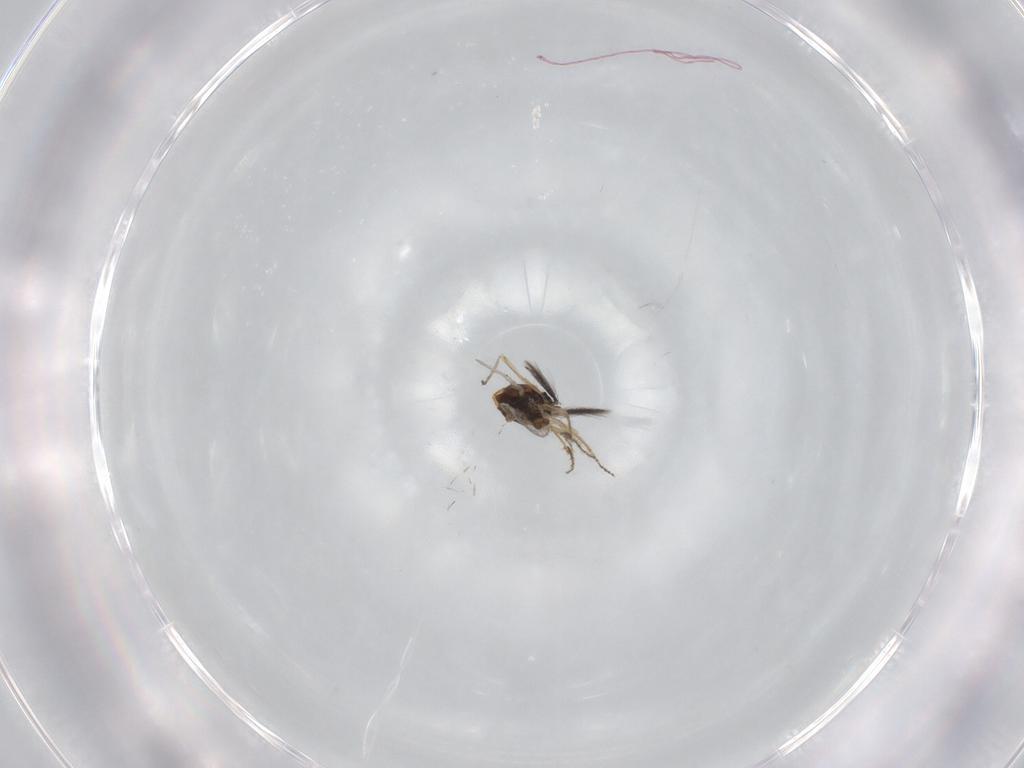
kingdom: Animalia
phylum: Arthropoda
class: Insecta
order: Diptera
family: Ceratopogonidae
